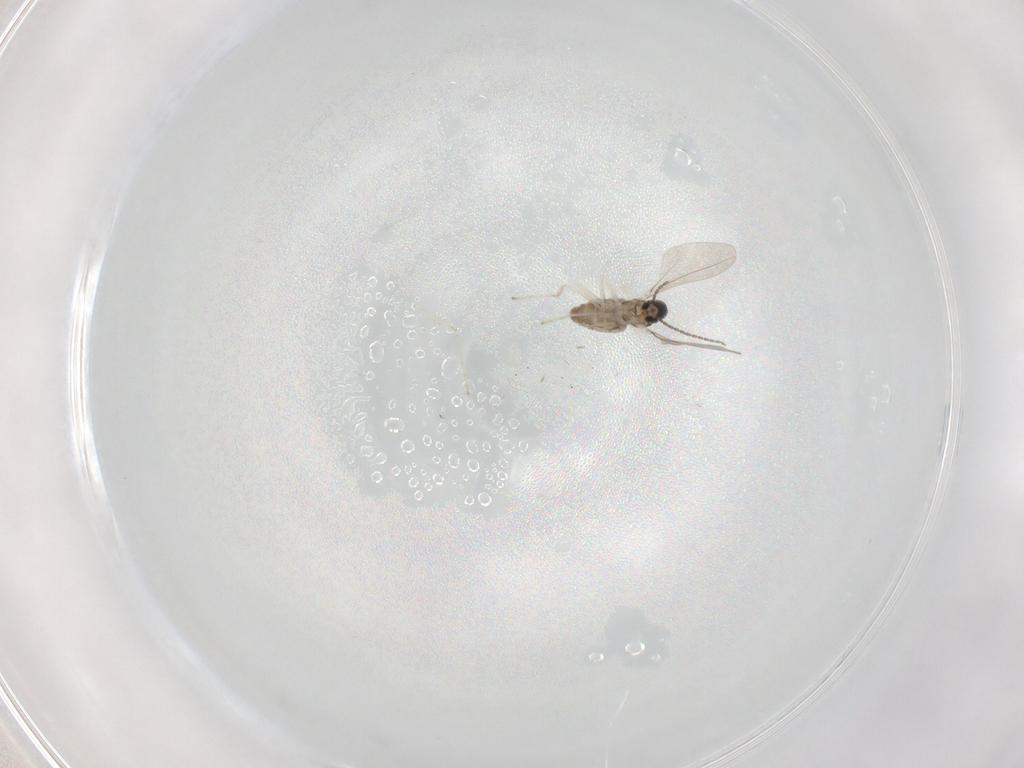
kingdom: Animalia
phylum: Arthropoda
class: Insecta
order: Diptera
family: Cecidomyiidae
